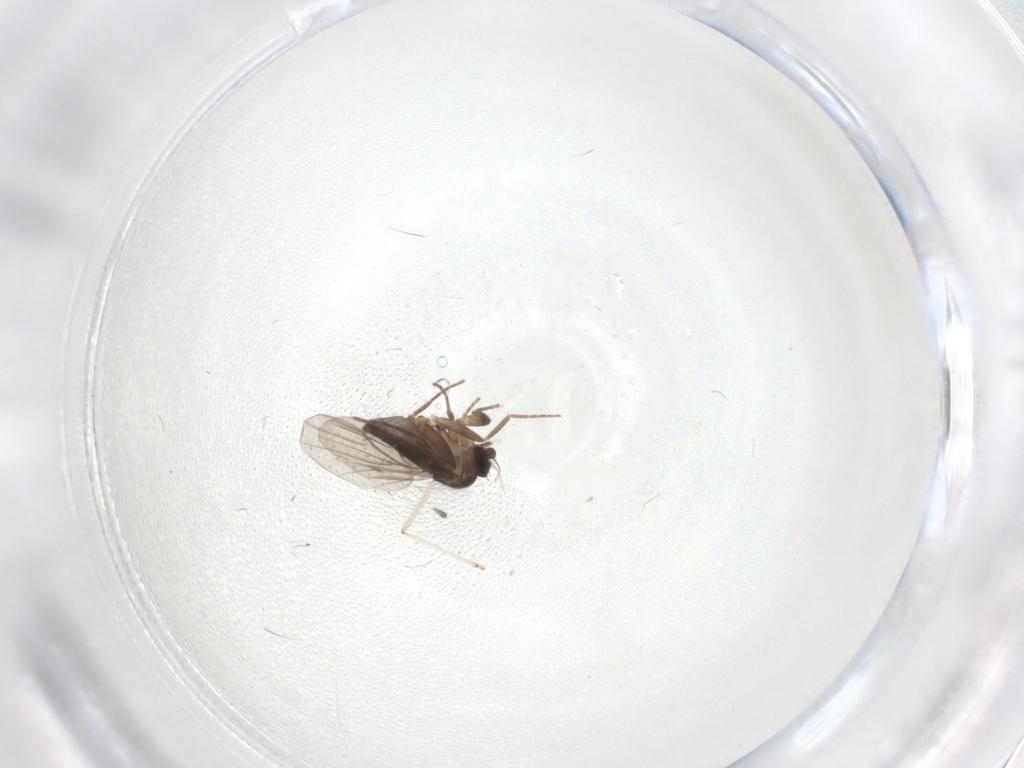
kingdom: Animalia
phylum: Arthropoda
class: Insecta
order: Diptera
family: Cecidomyiidae
